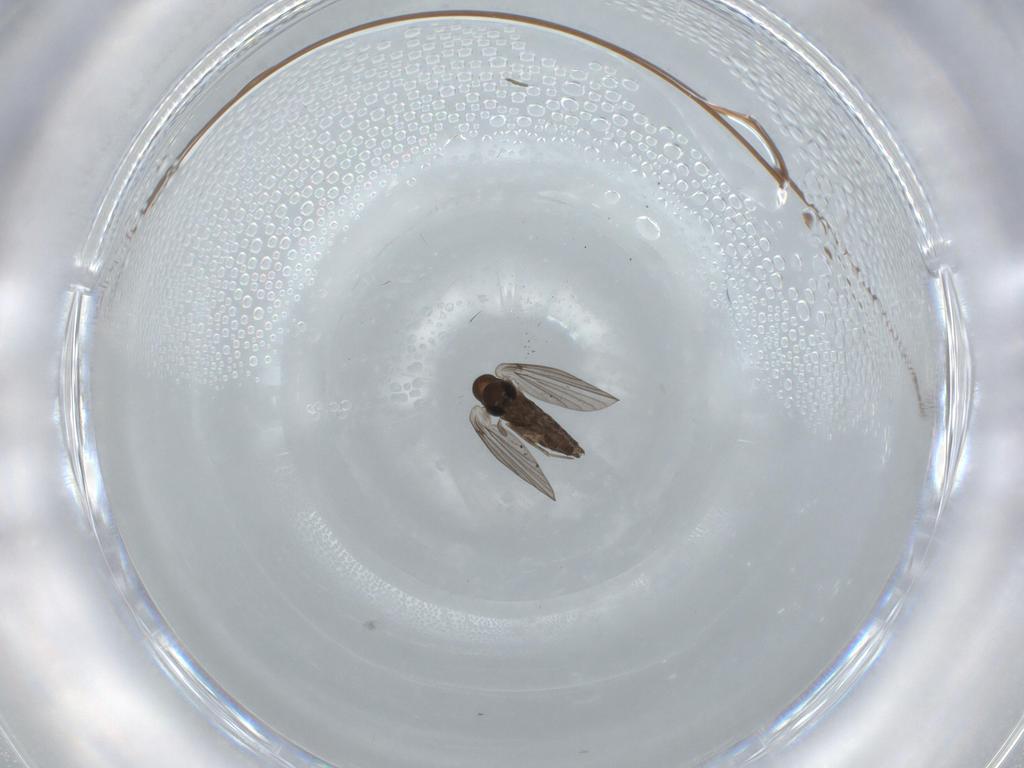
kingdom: Animalia
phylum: Arthropoda
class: Insecta
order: Diptera
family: Sphaeroceridae
